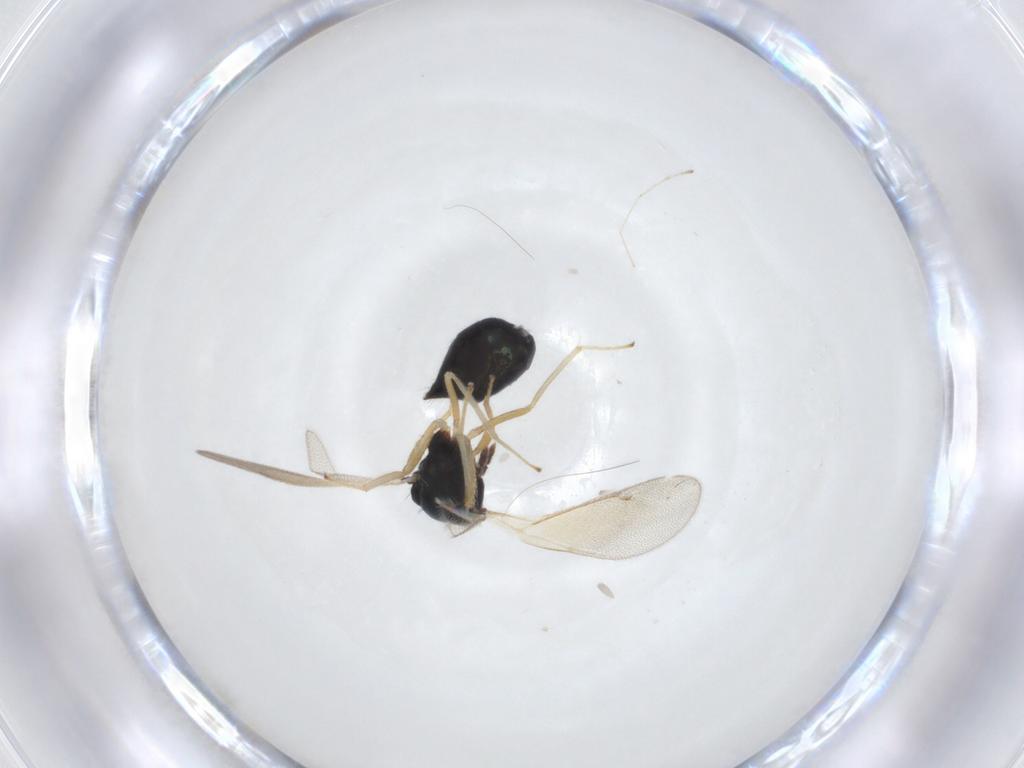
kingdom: Animalia
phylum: Arthropoda
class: Insecta
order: Hymenoptera
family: Eulophidae
